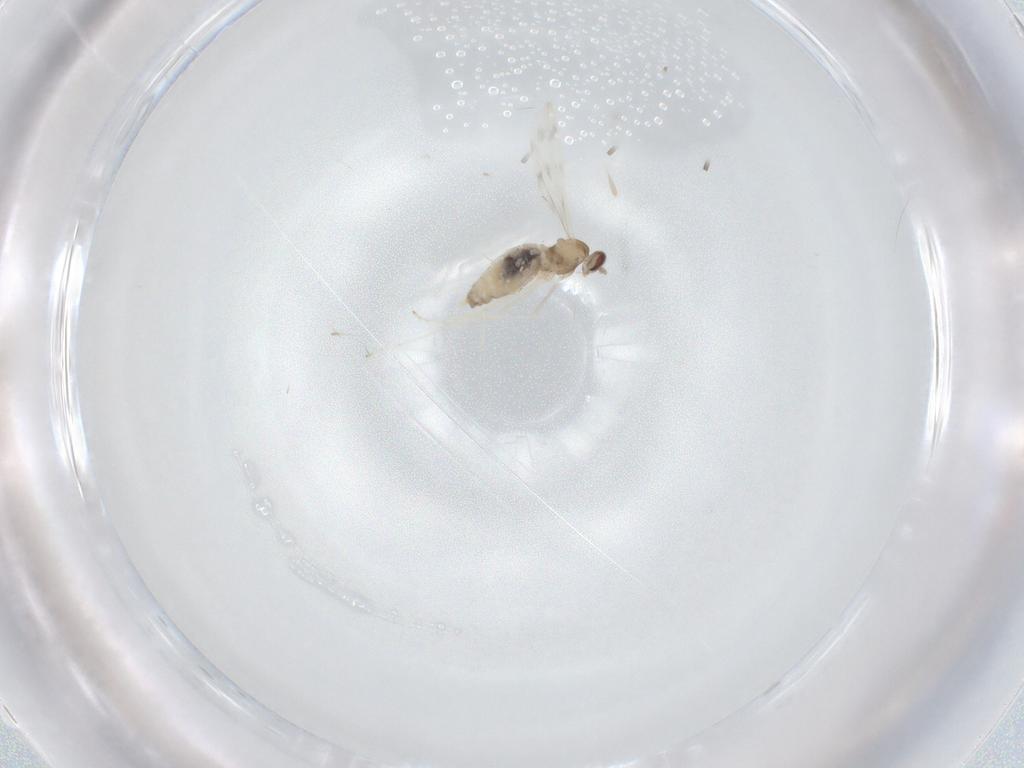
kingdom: Animalia
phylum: Arthropoda
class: Insecta
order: Diptera
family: Cecidomyiidae
